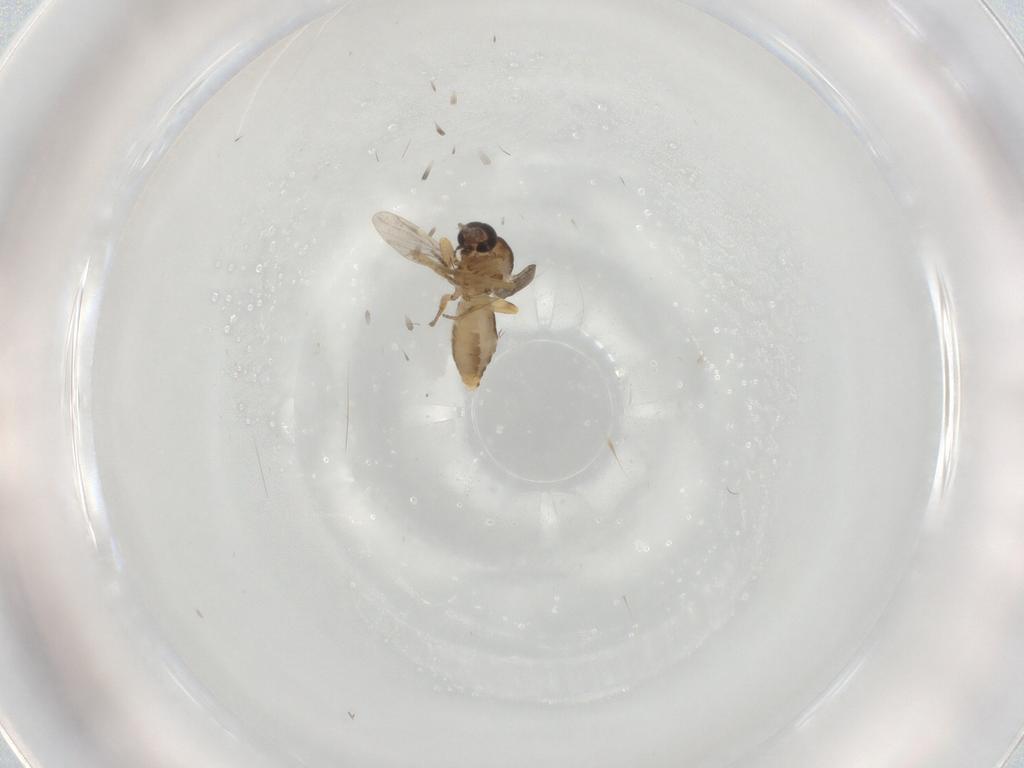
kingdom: Animalia
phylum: Arthropoda
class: Insecta
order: Diptera
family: Ceratopogonidae
